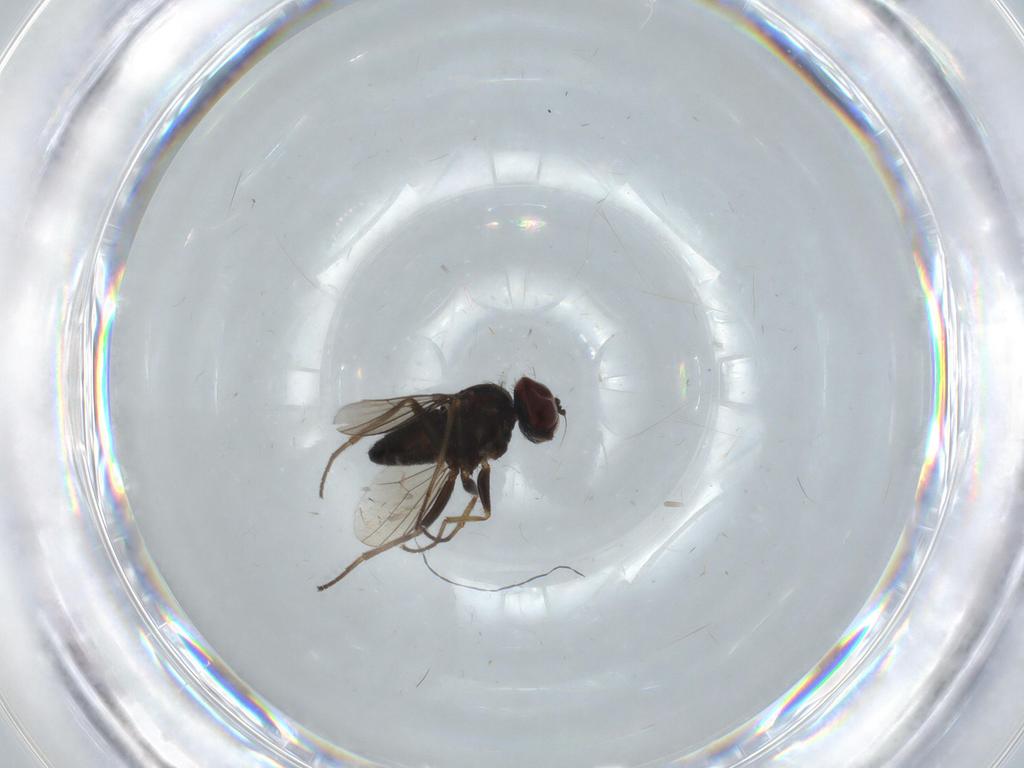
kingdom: Animalia
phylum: Arthropoda
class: Insecta
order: Diptera
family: Dolichopodidae
